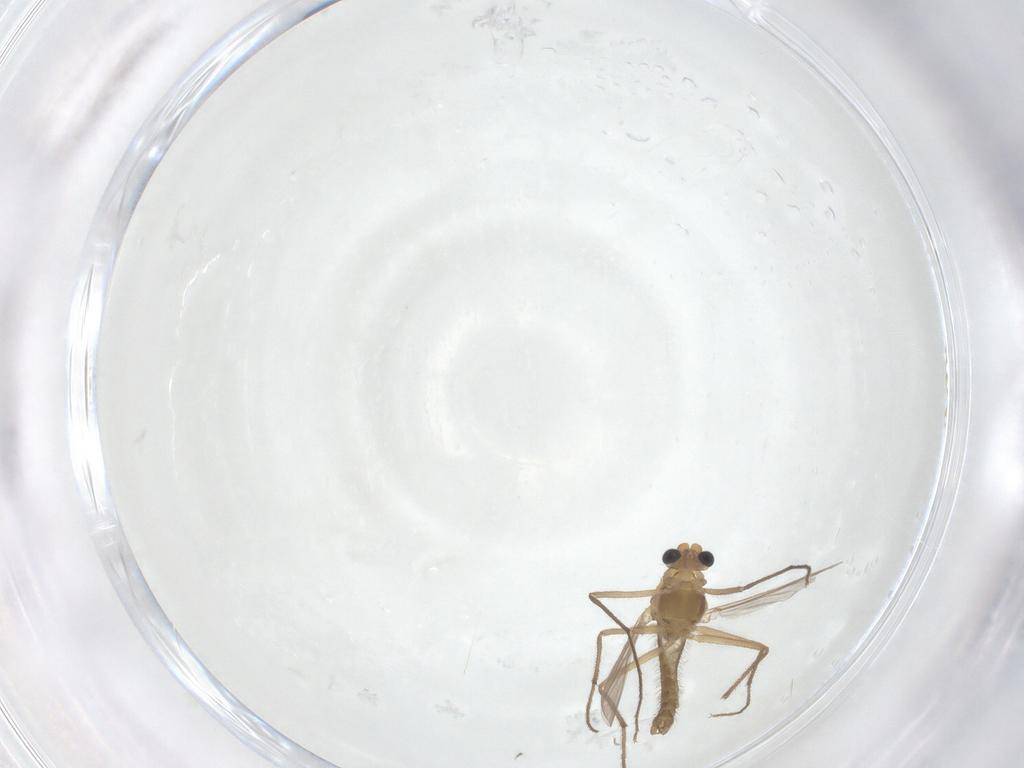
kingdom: Animalia
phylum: Arthropoda
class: Insecta
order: Diptera
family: Chironomidae
